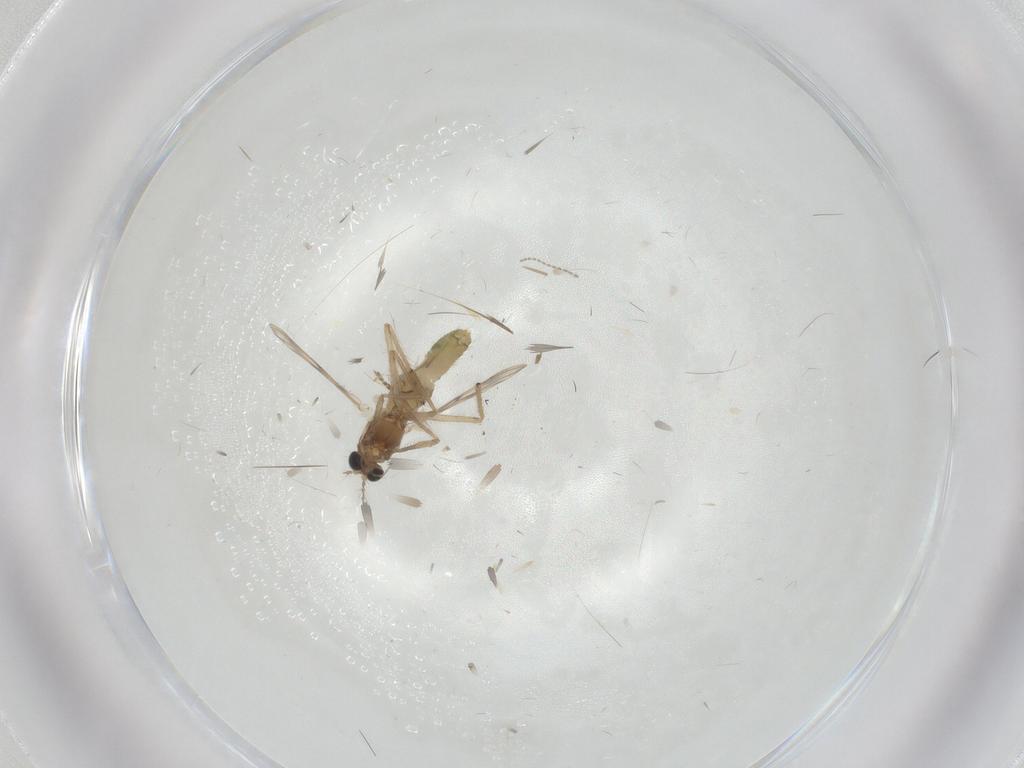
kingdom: Animalia
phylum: Arthropoda
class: Insecta
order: Diptera
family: Chironomidae
